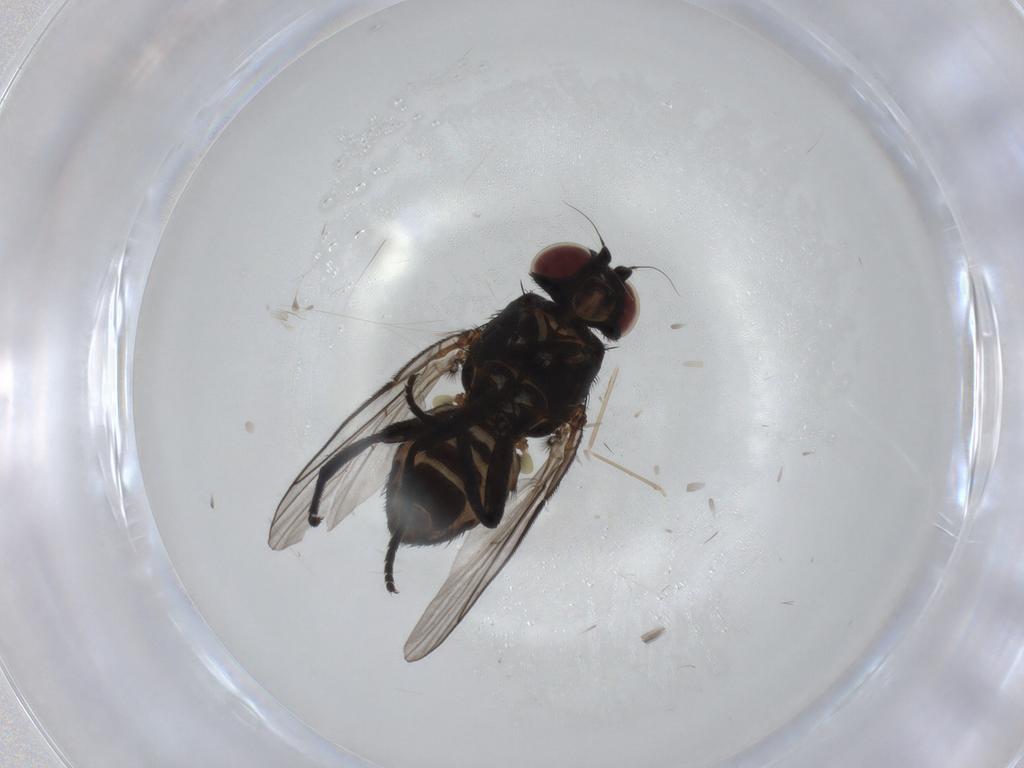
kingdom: Animalia
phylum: Arthropoda
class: Insecta
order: Diptera
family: Agromyzidae
